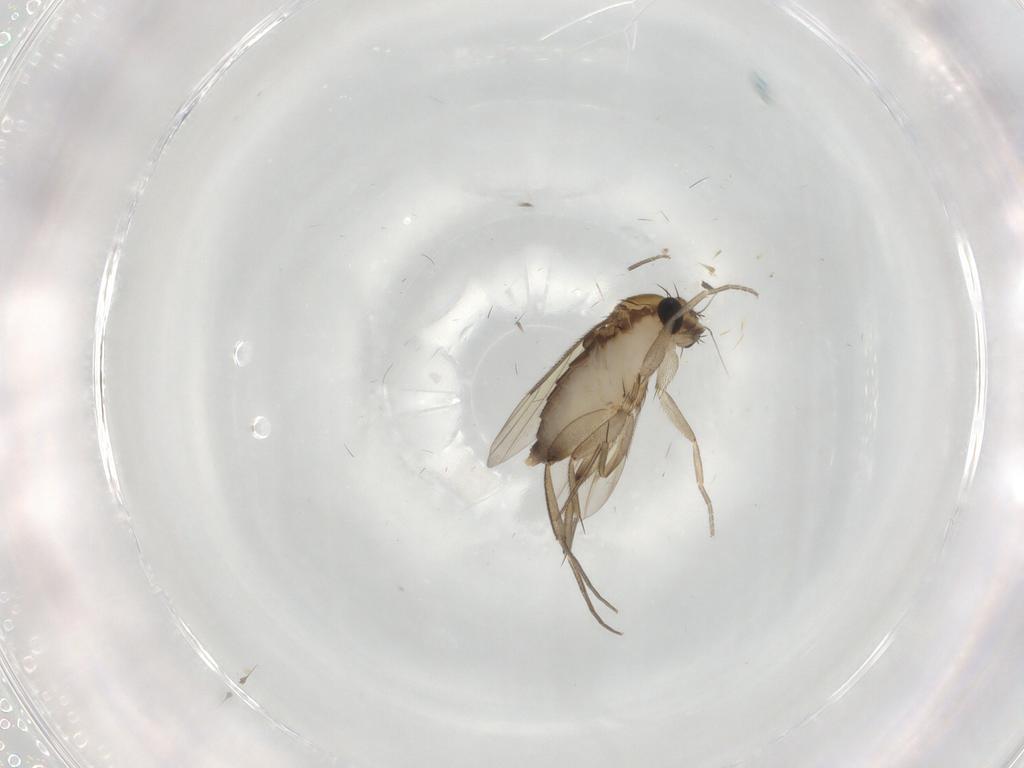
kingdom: Animalia
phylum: Arthropoda
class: Insecta
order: Diptera
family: Phoridae
